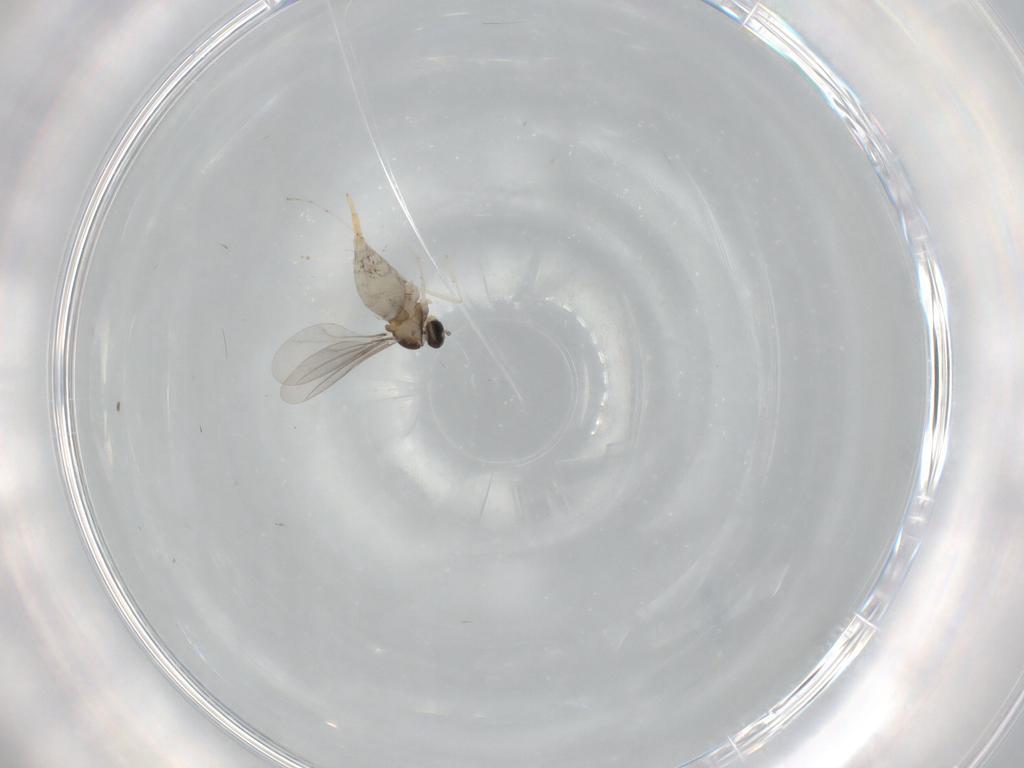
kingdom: Animalia
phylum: Arthropoda
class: Insecta
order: Diptera
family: Cecidomyiidae
